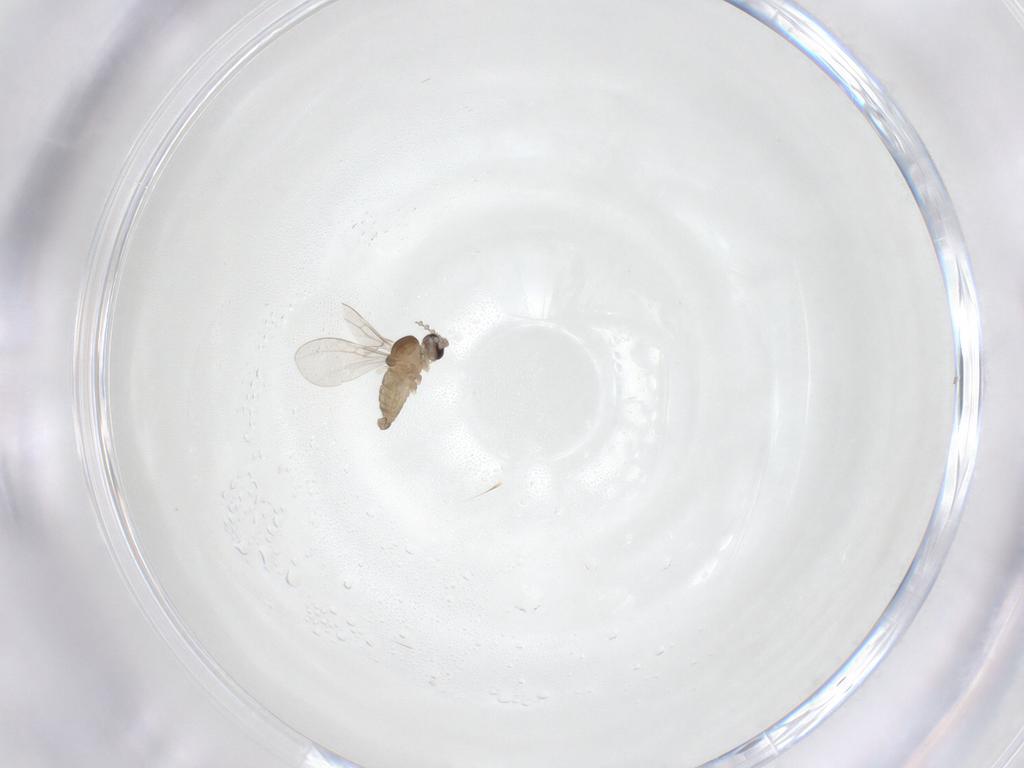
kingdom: Animalia
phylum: Arthropoda
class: Insecta
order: Diptera
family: Cecidomyiidae
